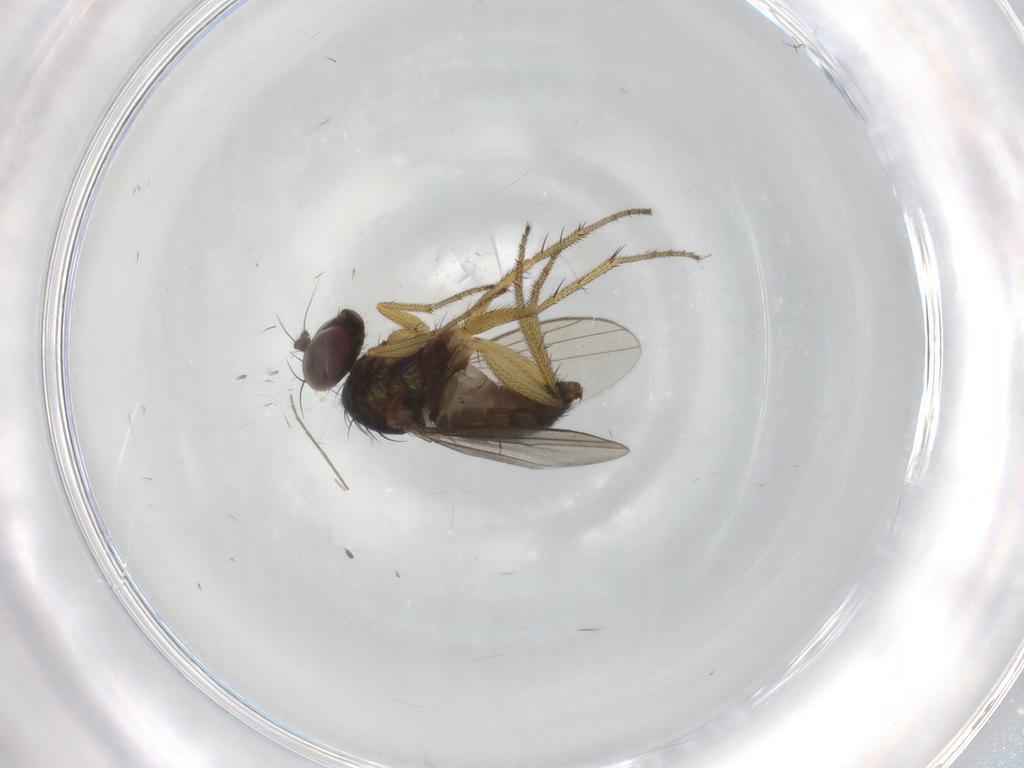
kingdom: Animalia
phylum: Arthropoda
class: Insecta
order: Diptera
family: Dolichopodidae
